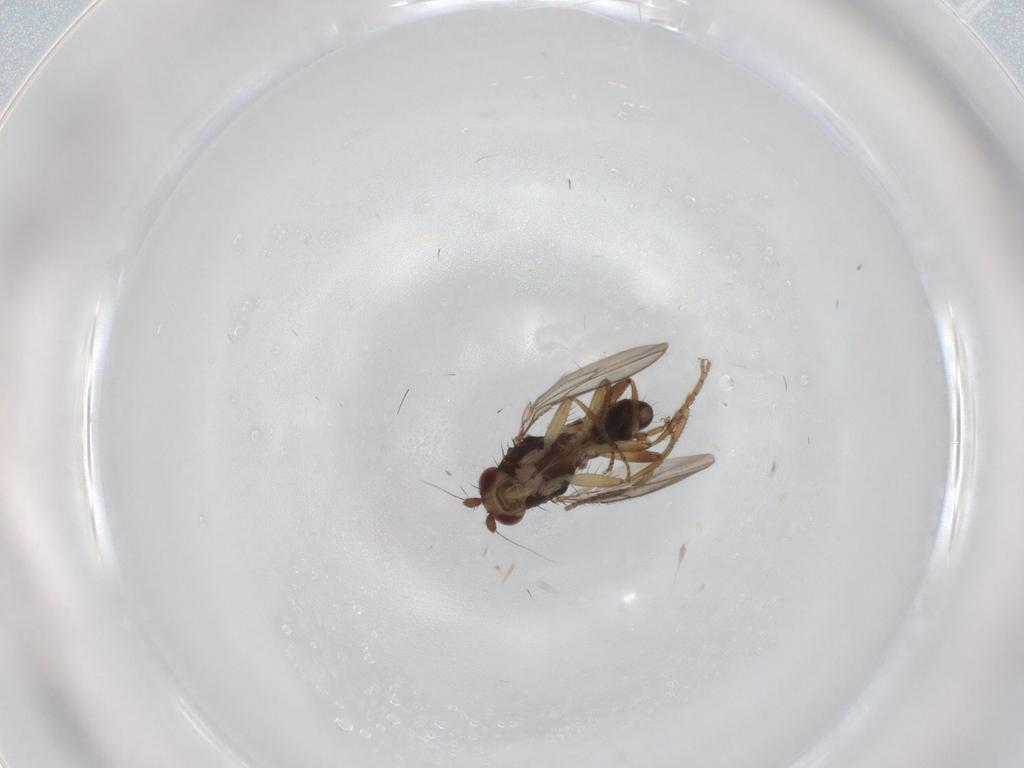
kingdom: Animalia
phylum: Arthropoda
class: Insecta
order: Diptera
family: Sphaeroceridae
